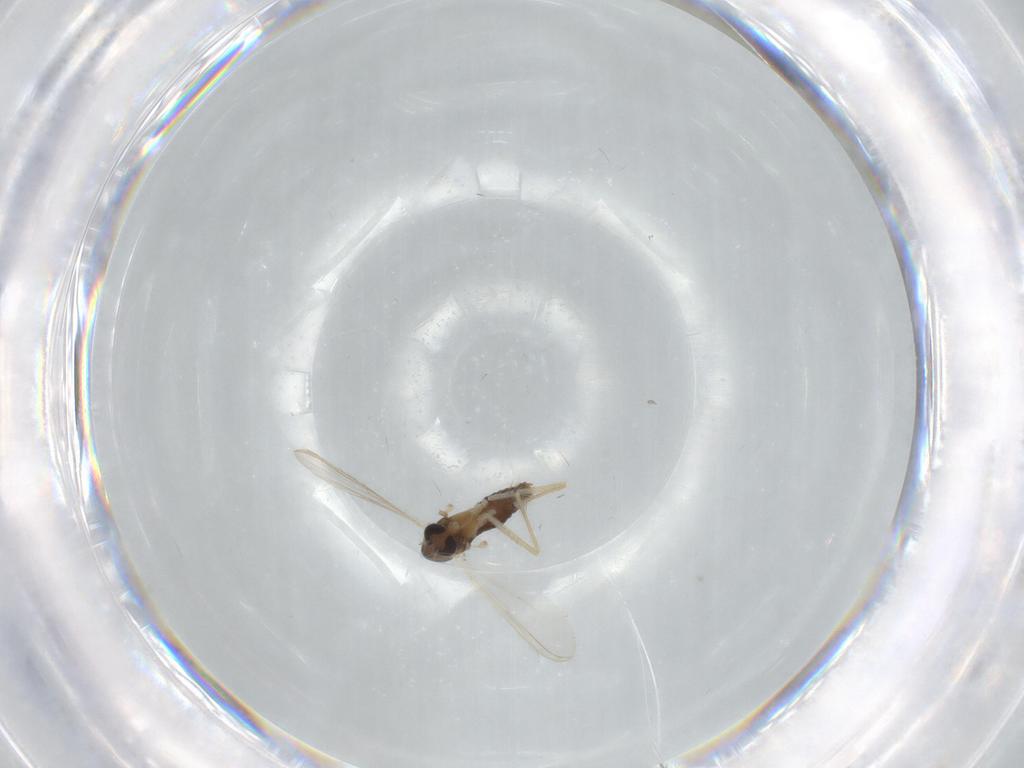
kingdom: Animalia
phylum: Arthropoda
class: Insecta
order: Diptera
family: Chironomidae
